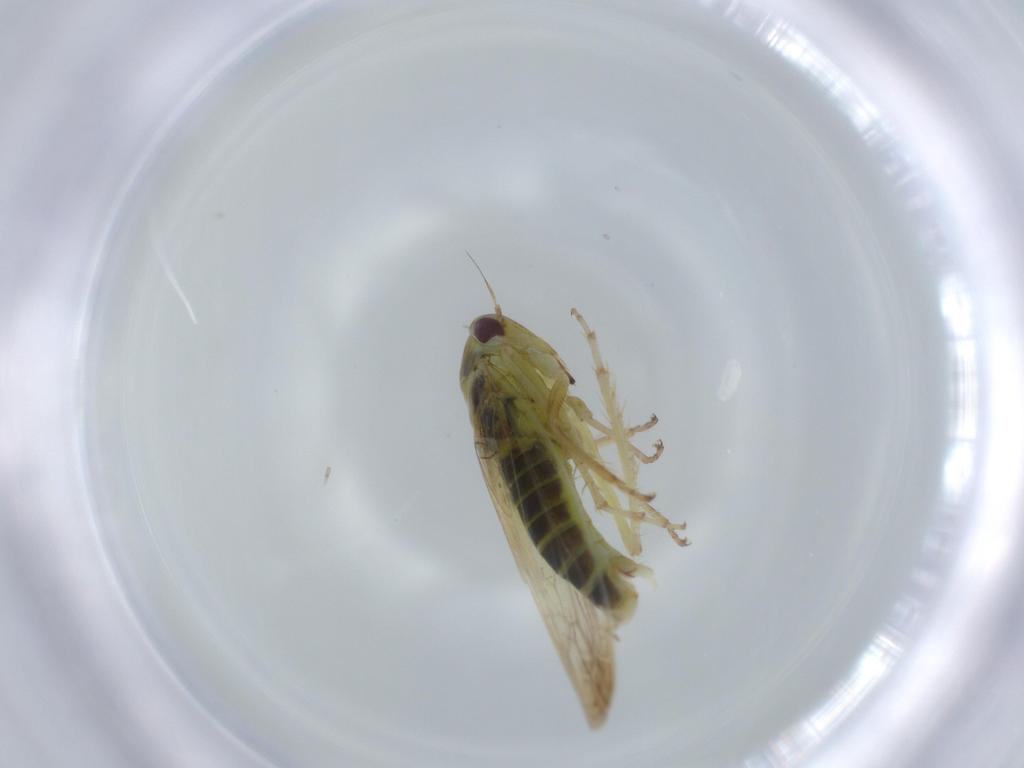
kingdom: Animalia
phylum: Arthropoda
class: Insecta
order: Hemiptera
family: Cicadellidae
